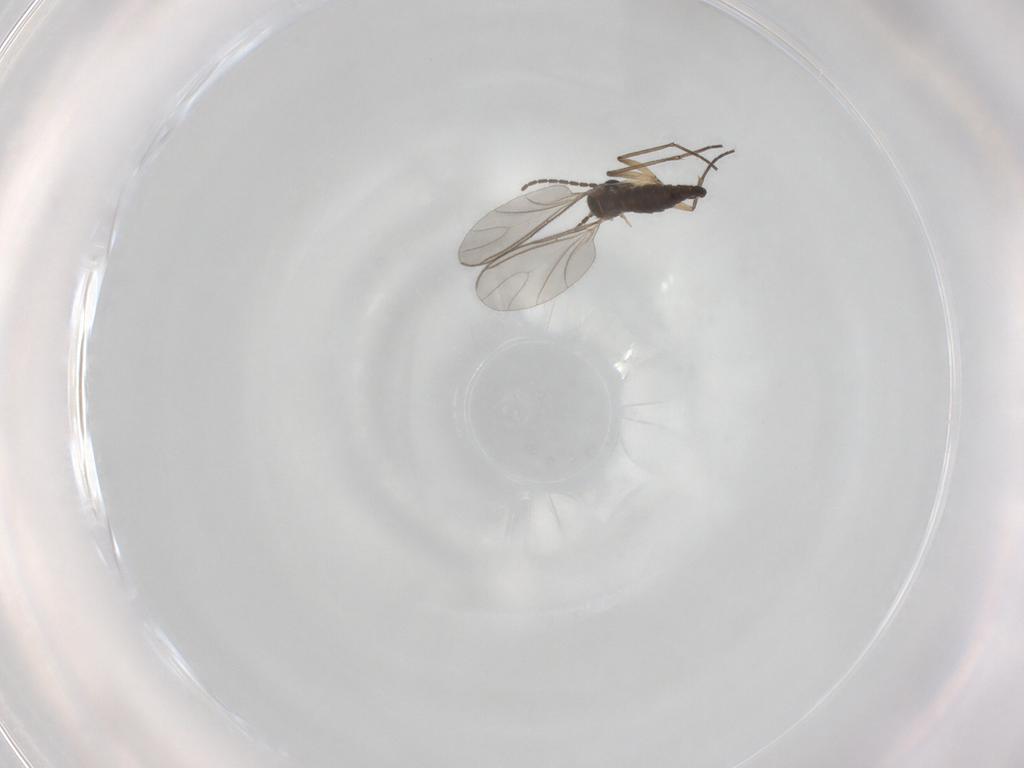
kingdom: Animalia
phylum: Arthropoda
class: Insecta
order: Diptera
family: Sciaridae
